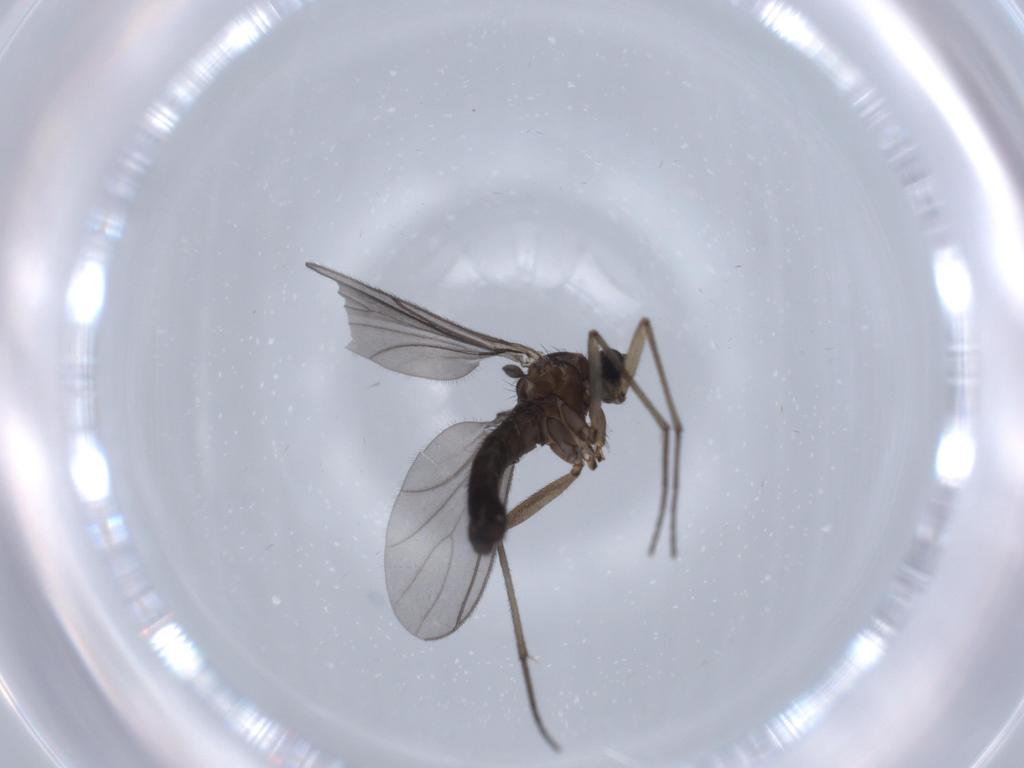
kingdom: Animalia
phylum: Arthropoda
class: Insecta
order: Diptera
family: Sciaridae
